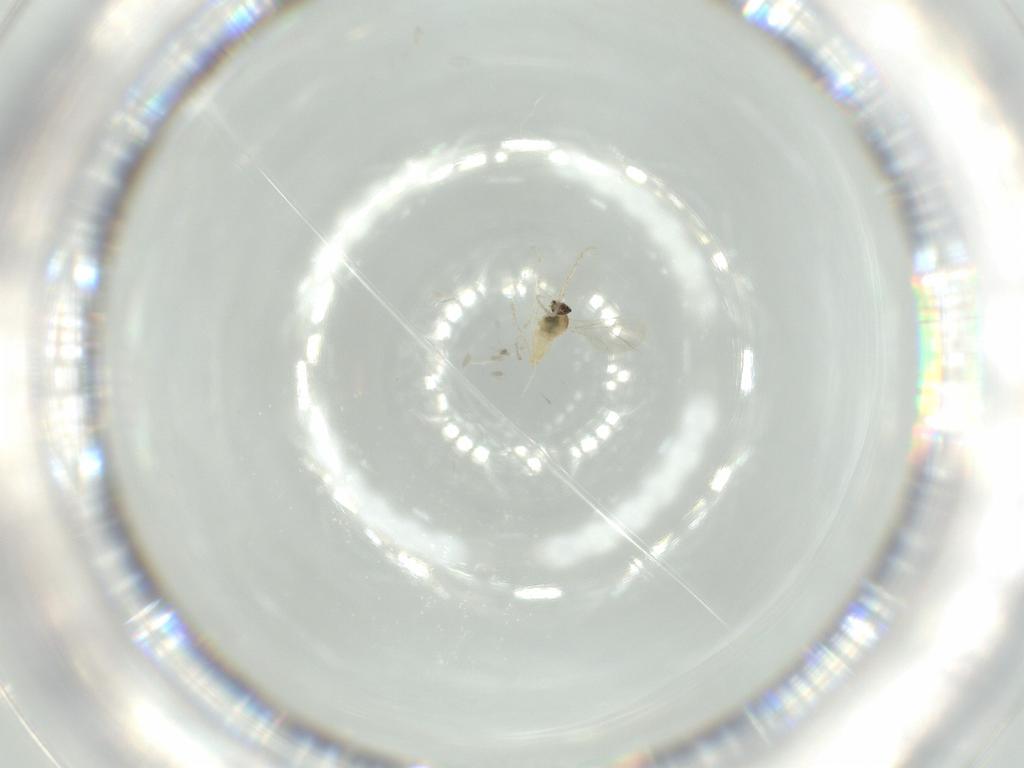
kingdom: Animalia
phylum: Arthropoda
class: Insecta
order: Diptera
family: Cecidomyiidae
